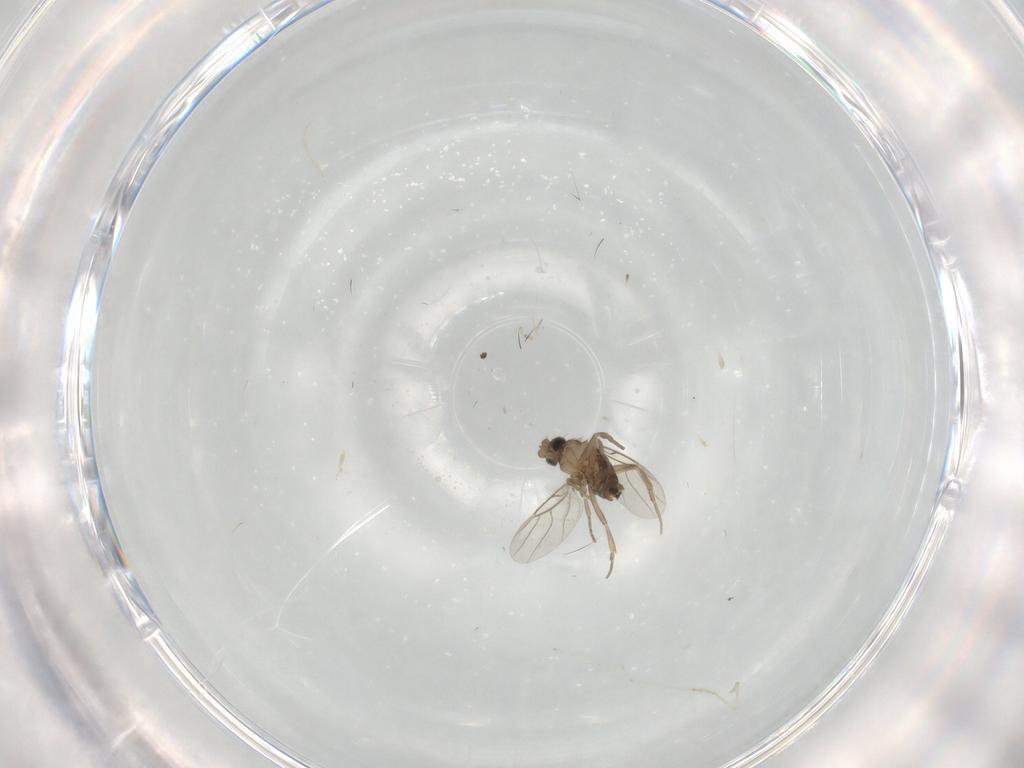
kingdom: Animalia
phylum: Arthropoda
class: Insecta
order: Diptera
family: Phoridae
